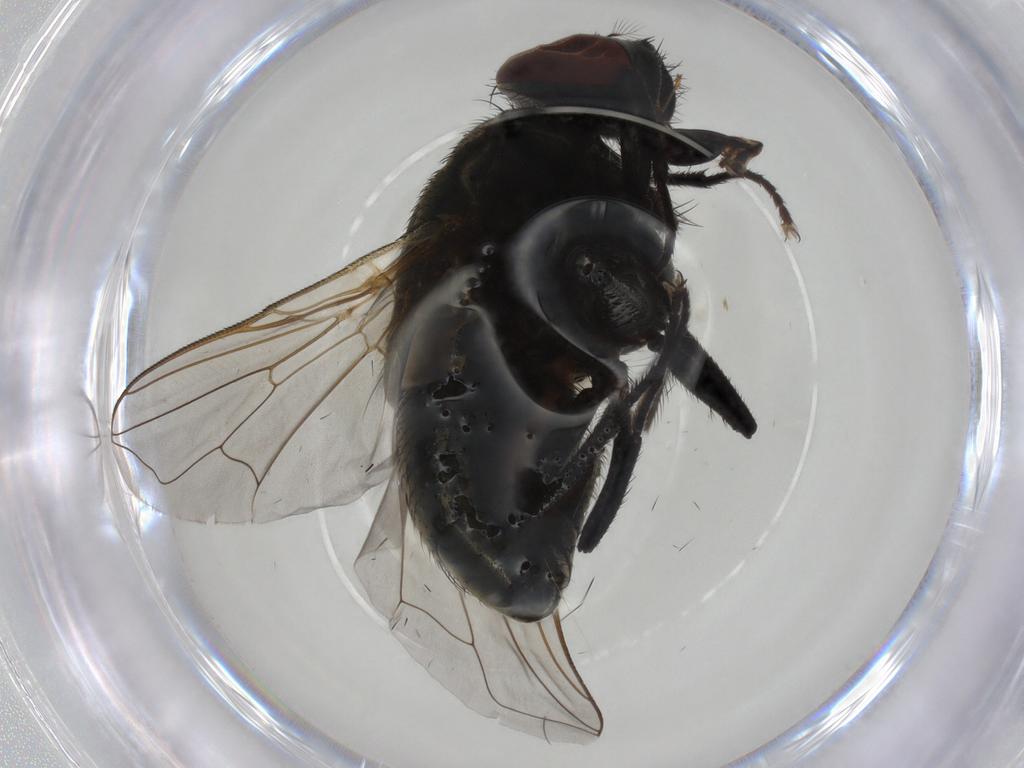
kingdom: Animalia
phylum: Arthropoda
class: Insecta
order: Diptera
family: Muscidae
